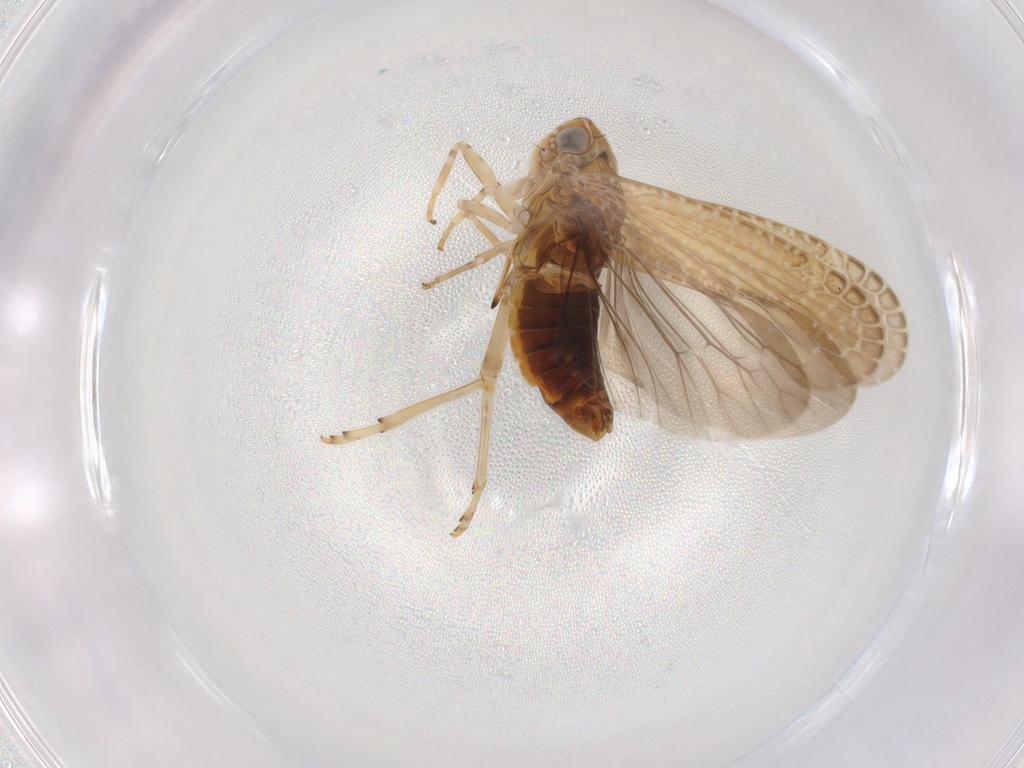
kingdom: Animalia
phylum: Arthropoda
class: Insecta
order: Hemiptera
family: Achilidae
